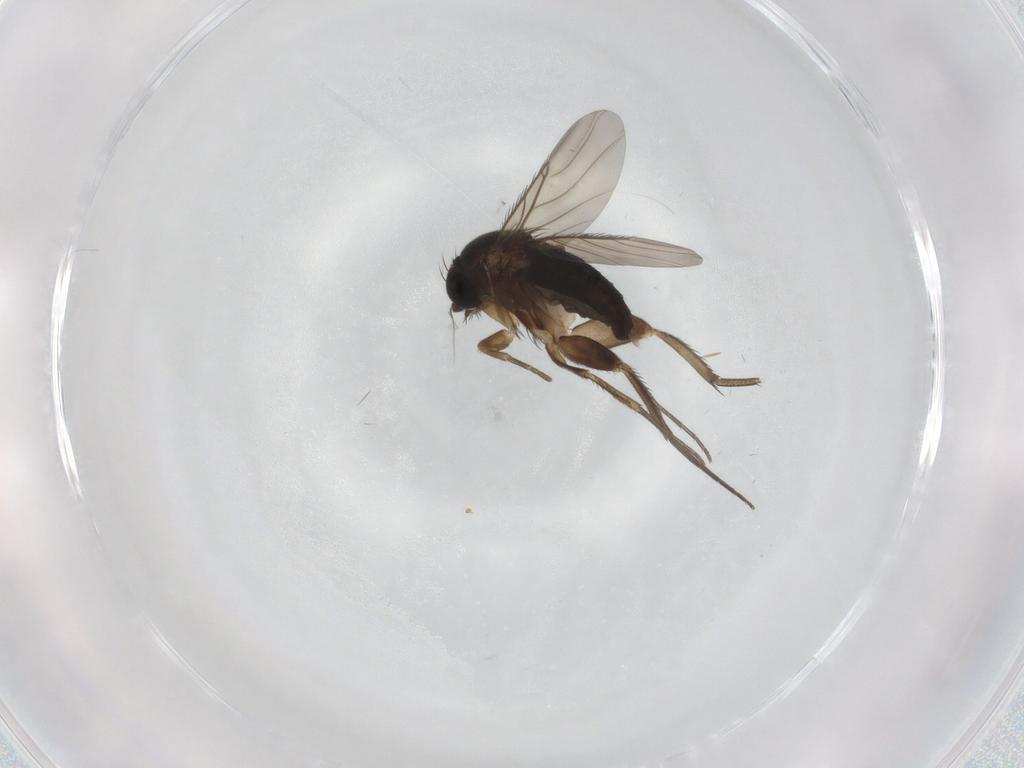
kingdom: Animalia
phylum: Arthropoda
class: Insecta
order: Diptera
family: Phoridae
